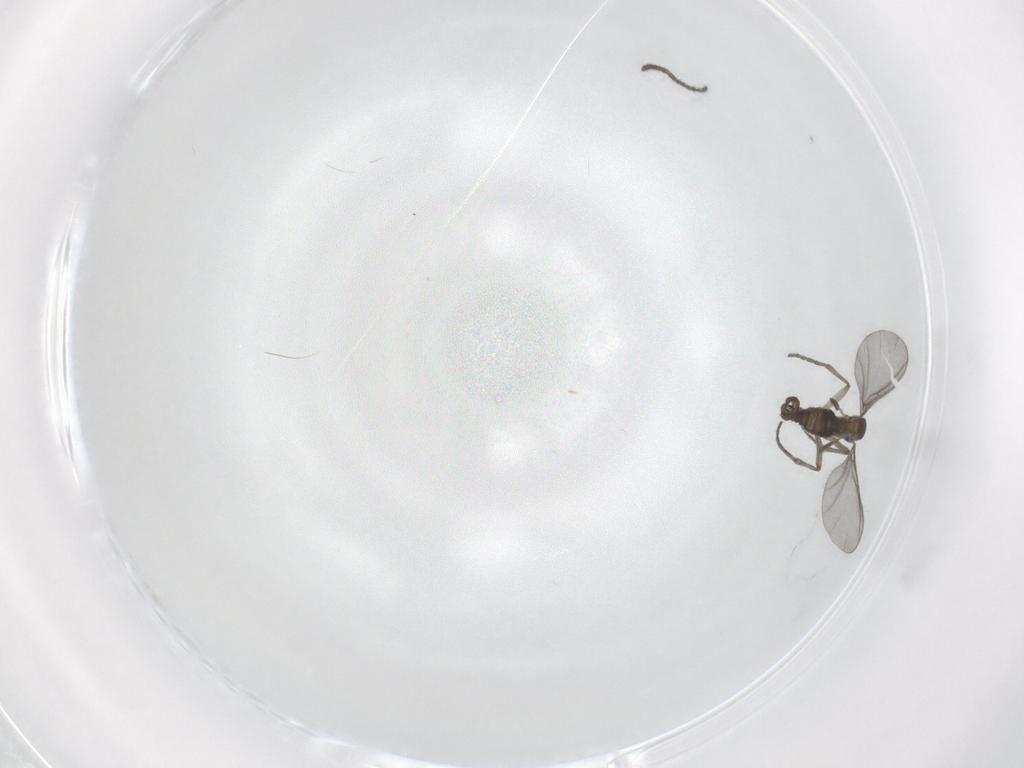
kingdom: Animalia
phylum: Arthropoda
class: Insecta
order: Diptera
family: Sciaridae
